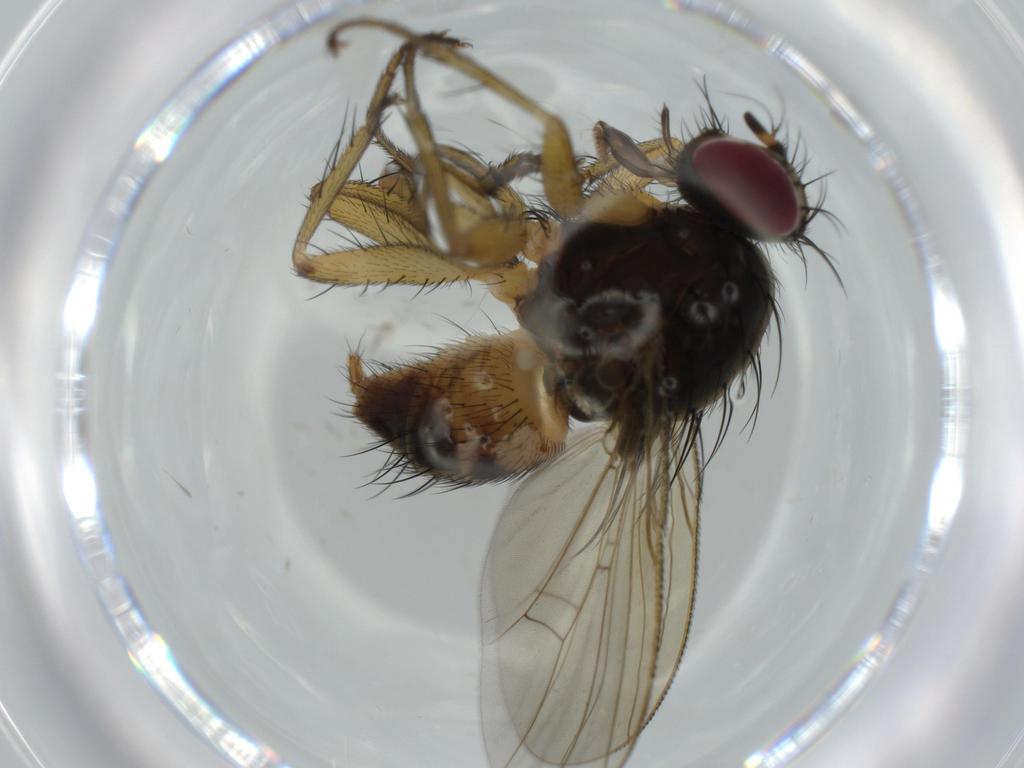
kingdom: Animalia
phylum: Arthropoda
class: Insecta
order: Diptera
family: Muscidae
